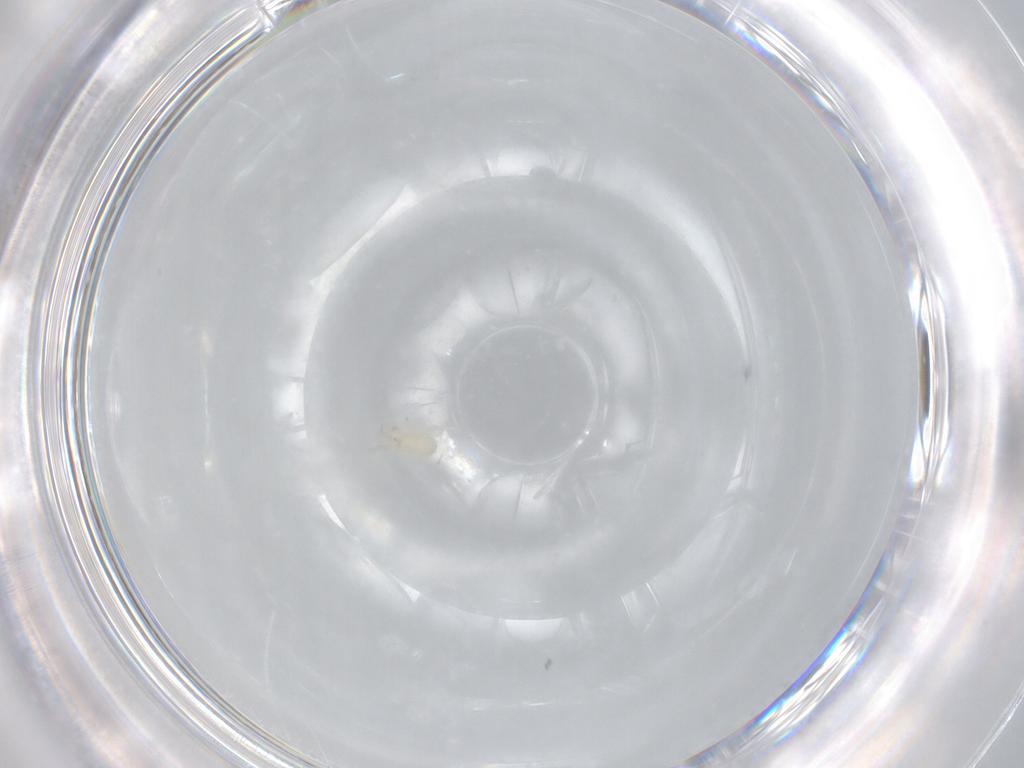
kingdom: Animalia
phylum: Arthropoda
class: Arachnida
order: Mesostigmata
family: Phytoseiidae
